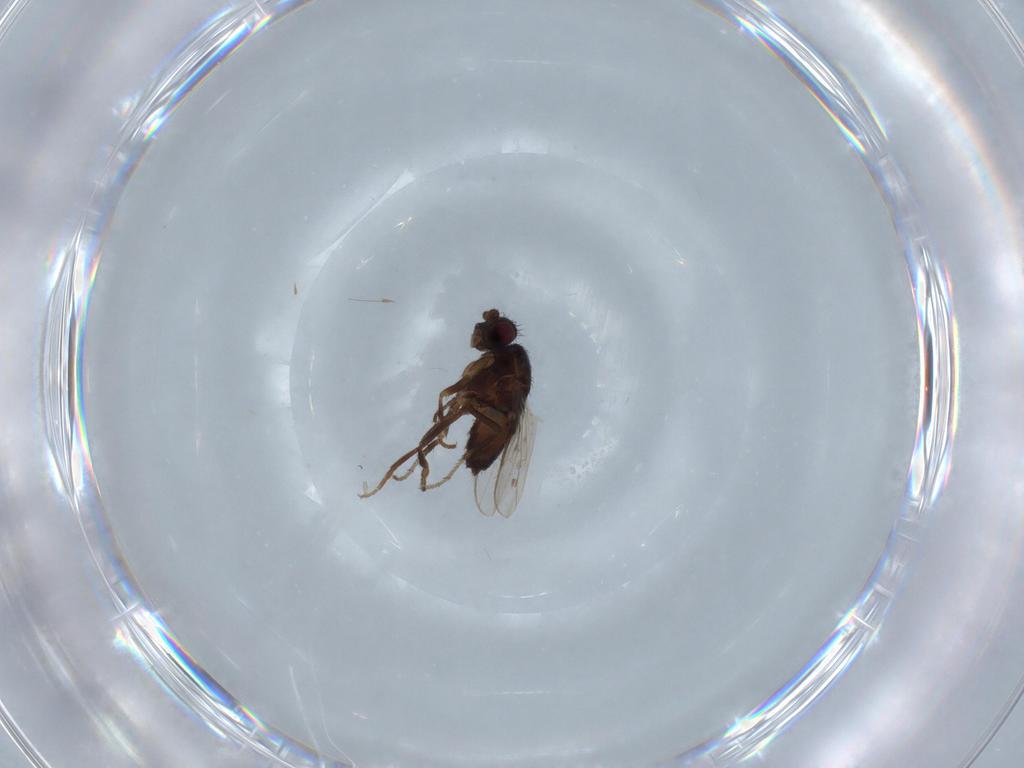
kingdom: Animalia
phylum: Arthropoda
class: Insecta
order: Diptera
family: Sphaeroceridae
